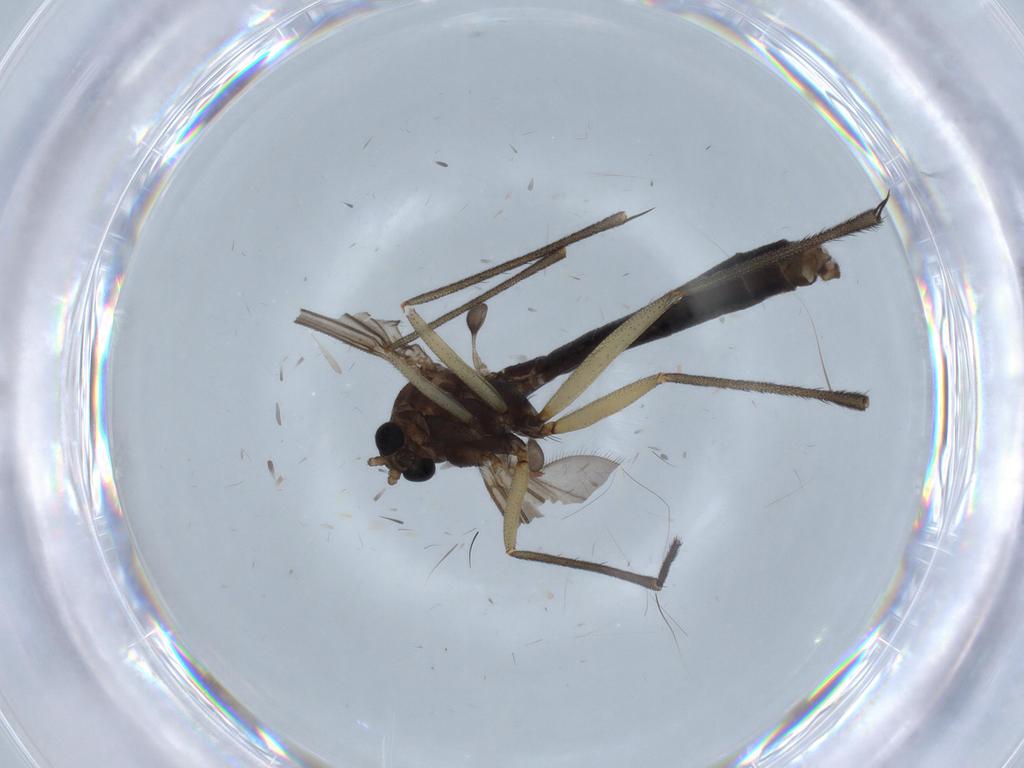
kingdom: Animalia
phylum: Arthropoda
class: Insecta
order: Diptera
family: Ditomyiidae
